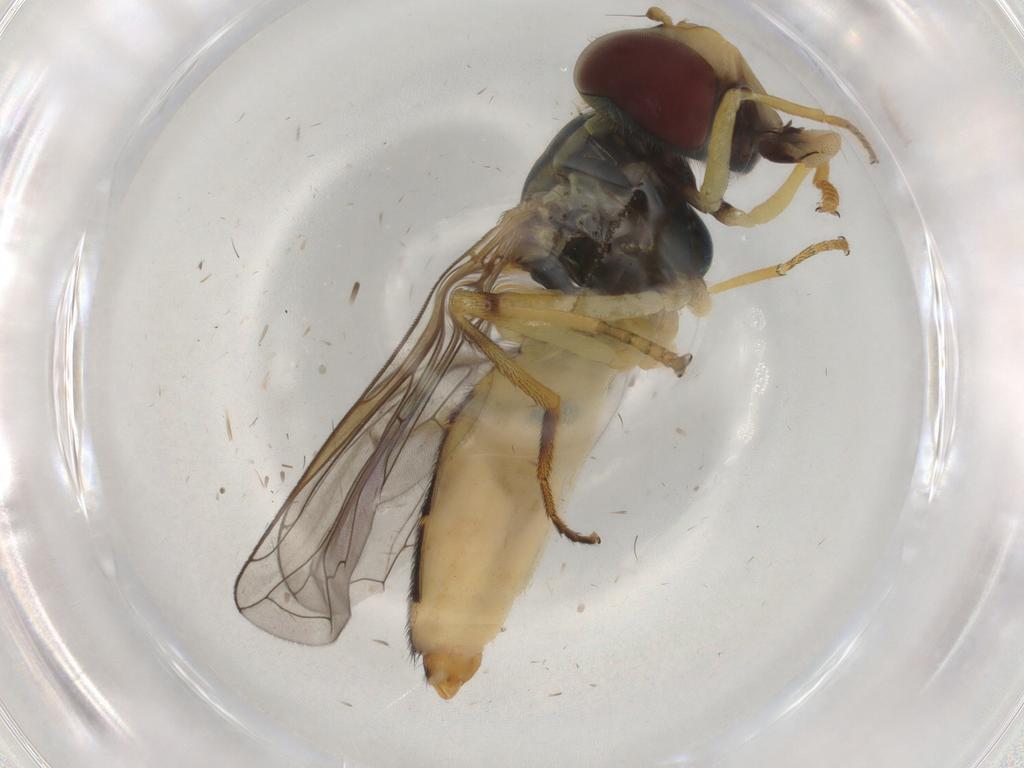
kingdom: Animalia
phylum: Arthropoda
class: Insecta
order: Diptera
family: Syrphidae
